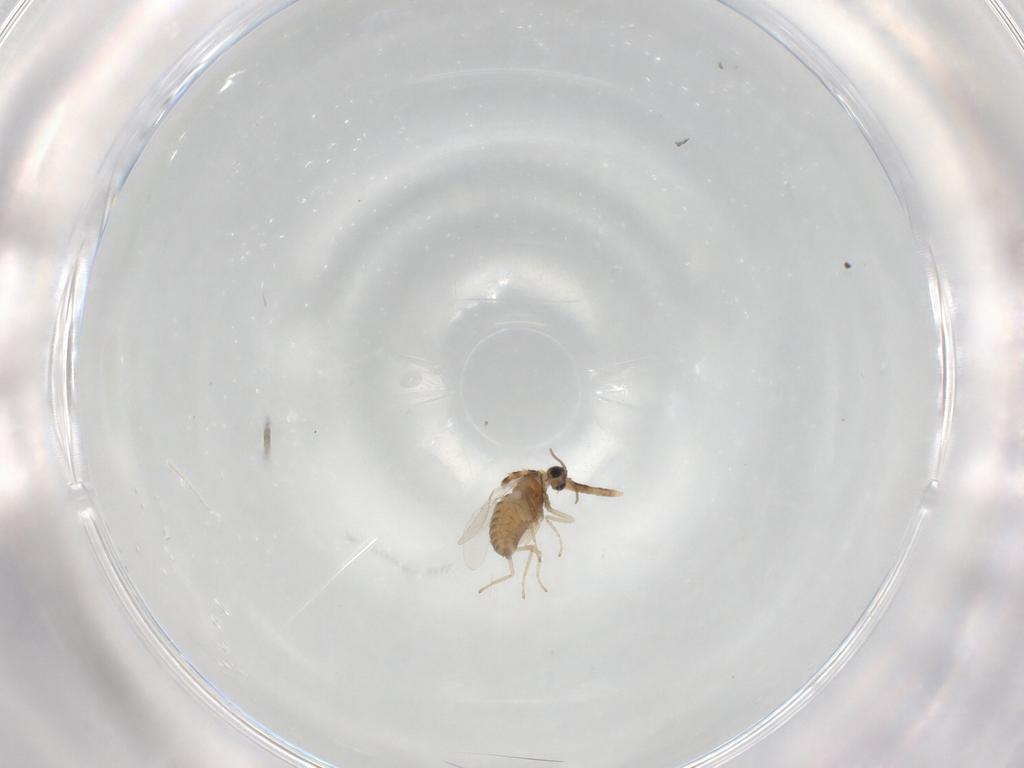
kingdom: Animalia
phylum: Arthropoda
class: Insecta
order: Diptera
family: Cecidomyiidae
